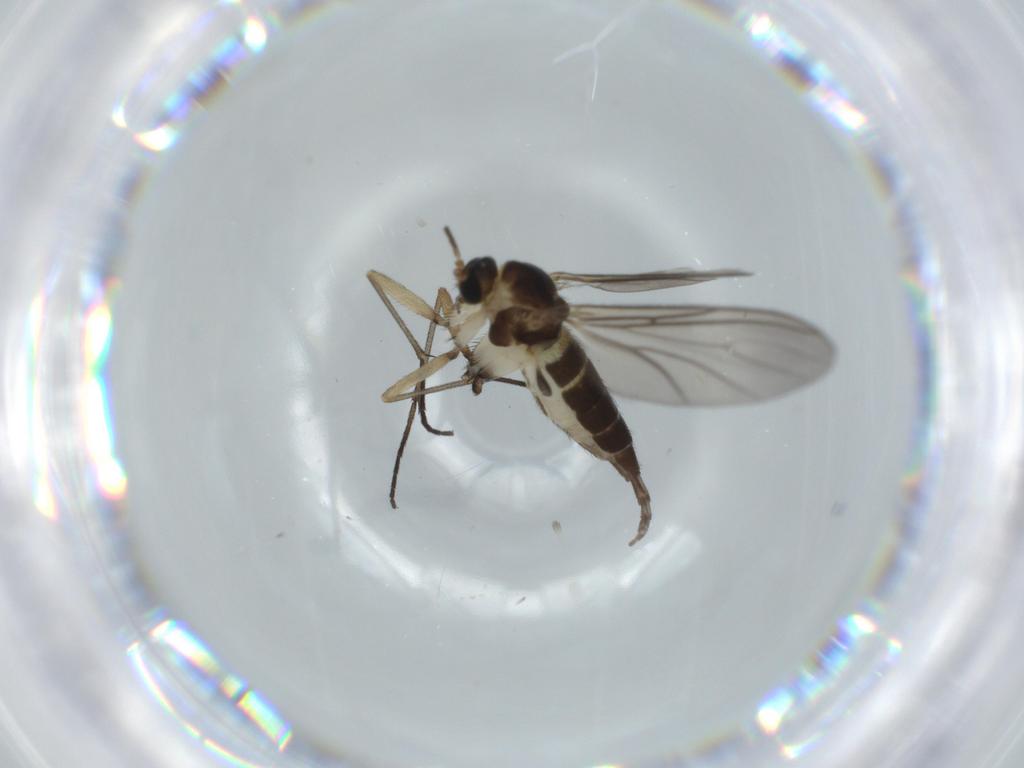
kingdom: Animalia
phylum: Arthropoda
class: Insecta
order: Diptera
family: Sciaridae
